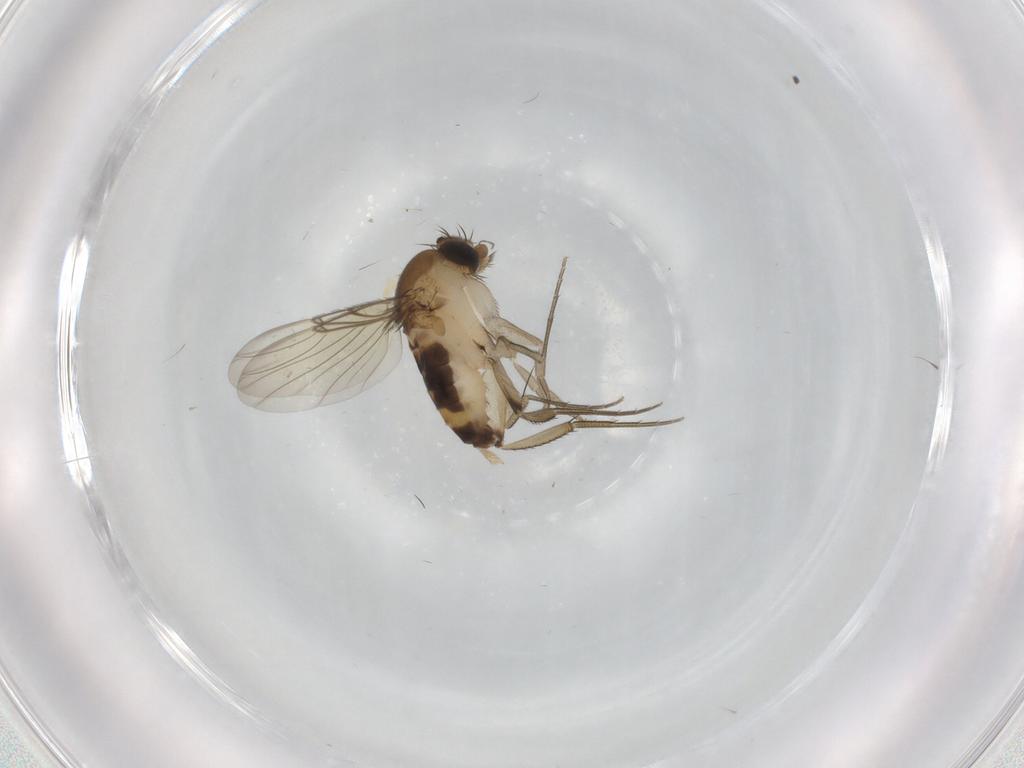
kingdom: Animalia
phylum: Arthropoda
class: Insecta
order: Diptera
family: Phoridae
